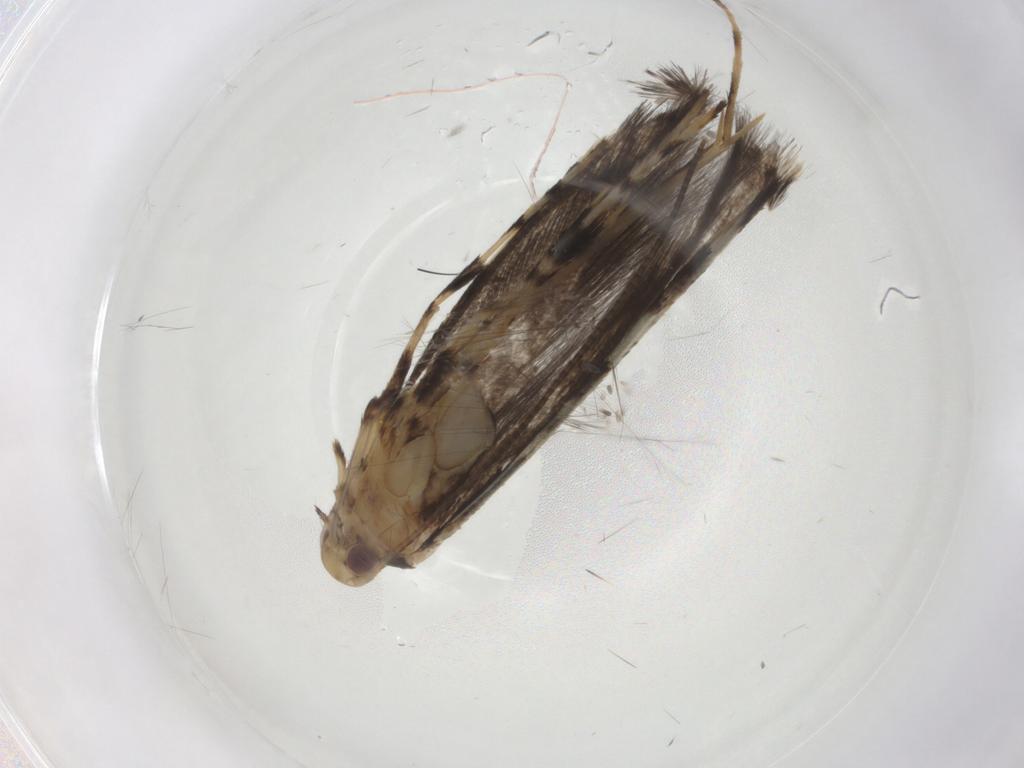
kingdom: Animalia
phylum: Arthropoda
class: Insecta
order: Lepidoptera
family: Gracillariidae
